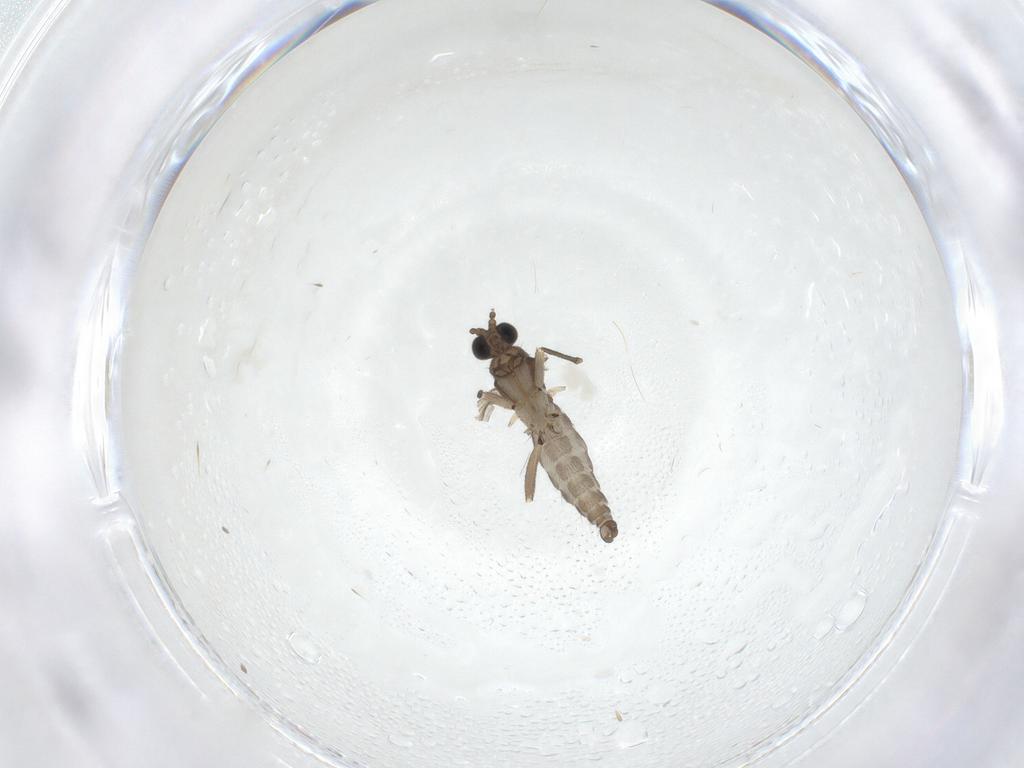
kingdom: Animalia
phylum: Arthropoda
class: Insecta
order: Diptera
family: Sciaridae
